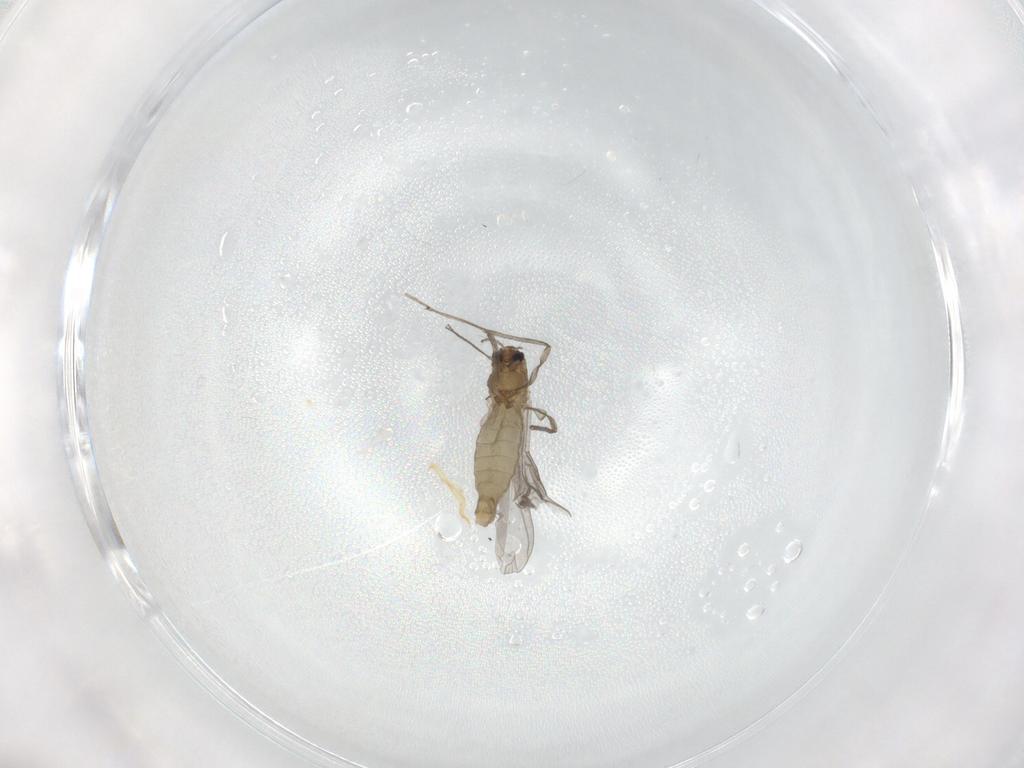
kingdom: Animalia
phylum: Arthropoda
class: Insecta
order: Diptera
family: Chironomidae
